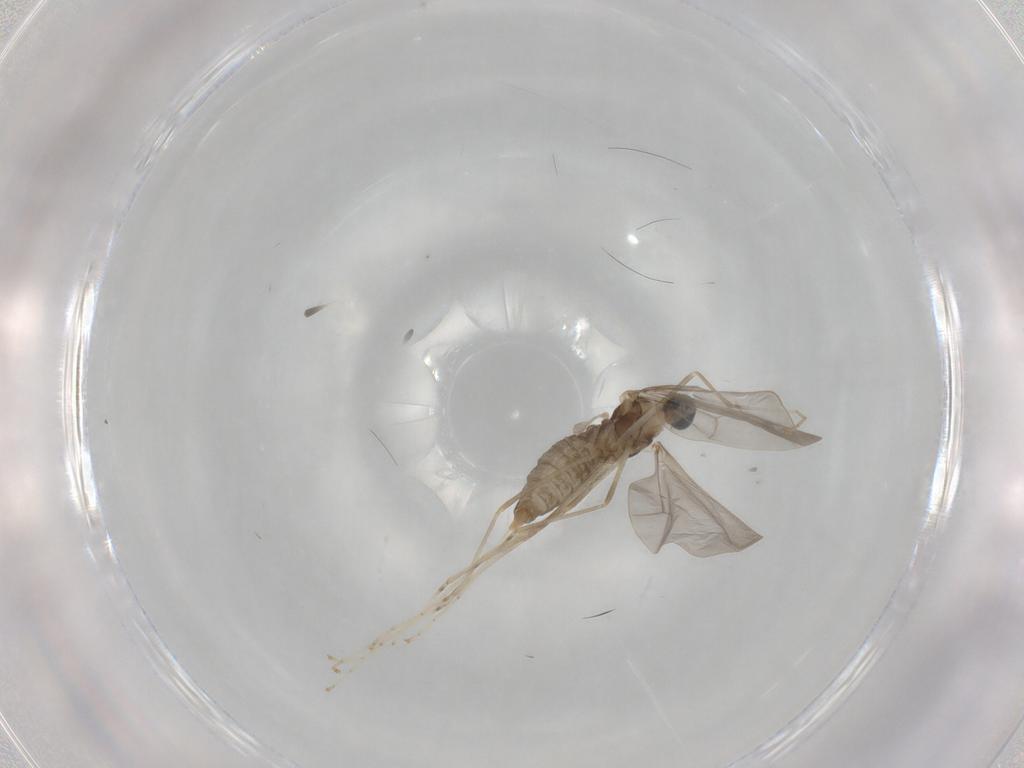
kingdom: Animalia
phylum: Arthropoda
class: Insecta
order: Diptera
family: Cecidomyiidae
